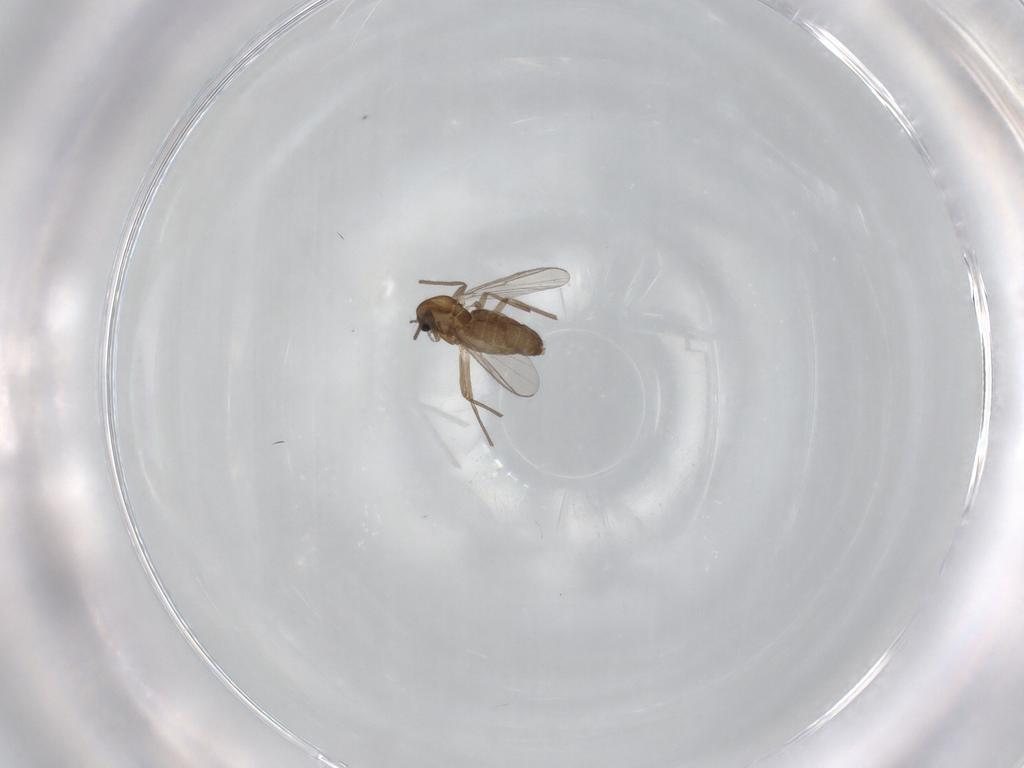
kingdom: Animalia
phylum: Arthropoda
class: Insecta
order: Diptera
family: Chironomidae
